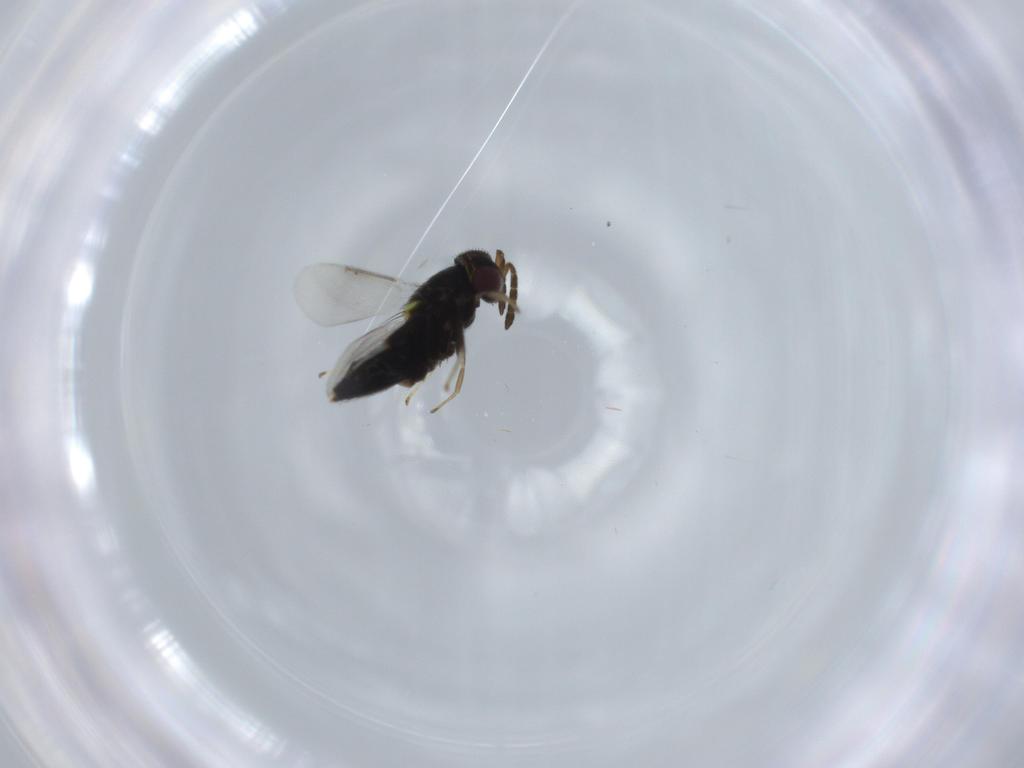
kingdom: Animalia
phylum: Arthropoda
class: Insecta
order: Hymenoptera
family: Aphelinidae
